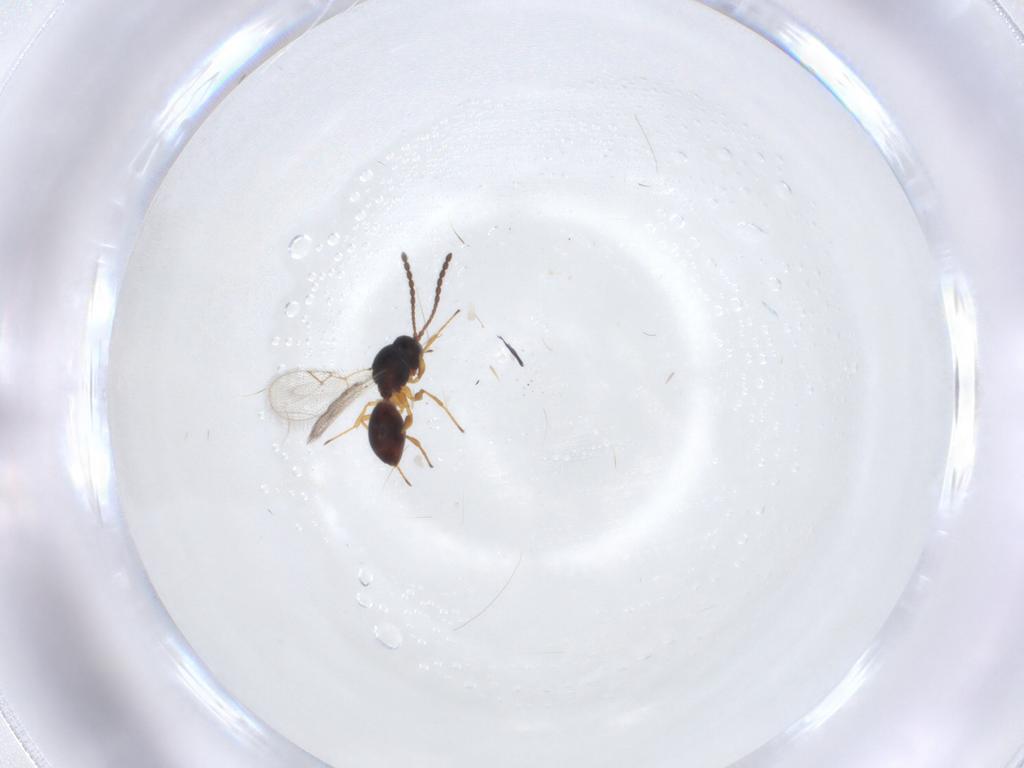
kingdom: Animalia
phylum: Arthropoda
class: Insecta
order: Hymenoptera
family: Figitidae
